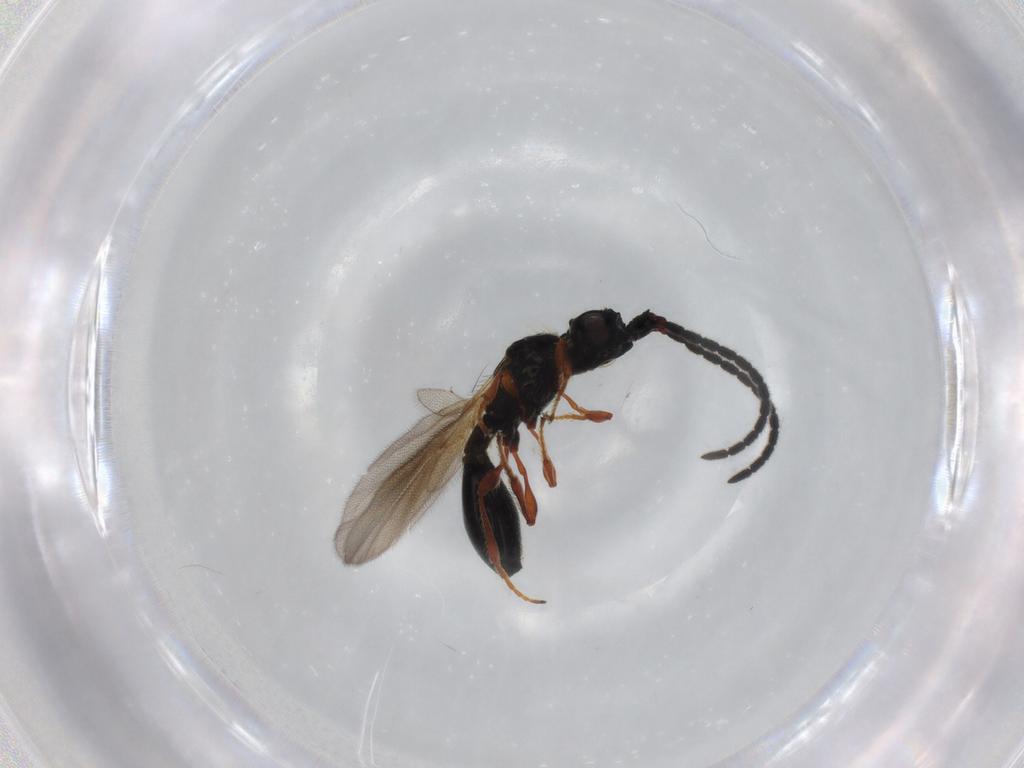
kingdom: Animalia
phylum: Arthropoda
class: Insecta
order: Hymenoptera
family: Diapriidae
